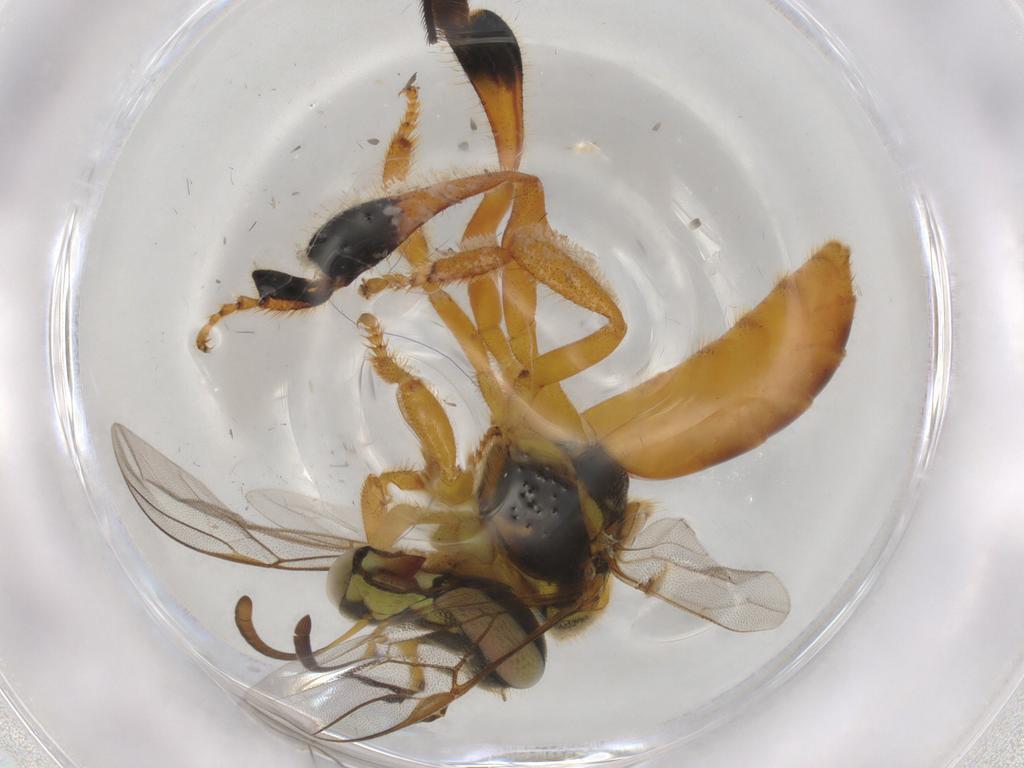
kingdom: Animalia
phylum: Arthropoda
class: Insecta
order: Hymenoptera
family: Apidae
